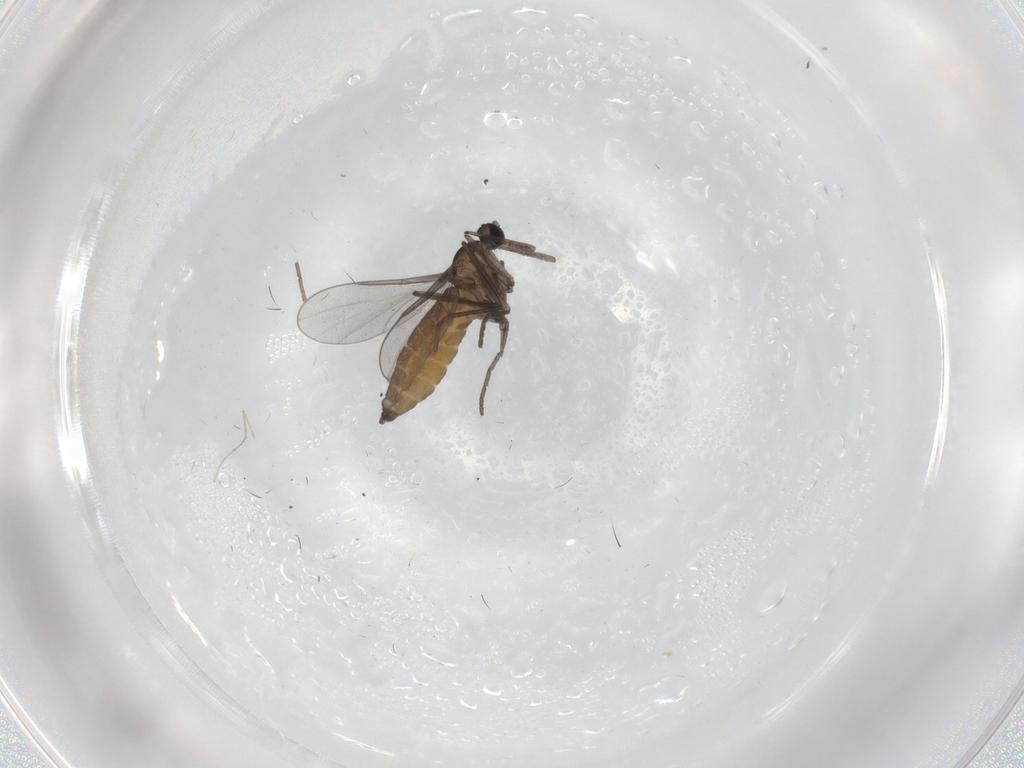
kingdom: Animalia
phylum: Arthropoda
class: Insecta
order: Diptera
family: Cecidomyiidae
